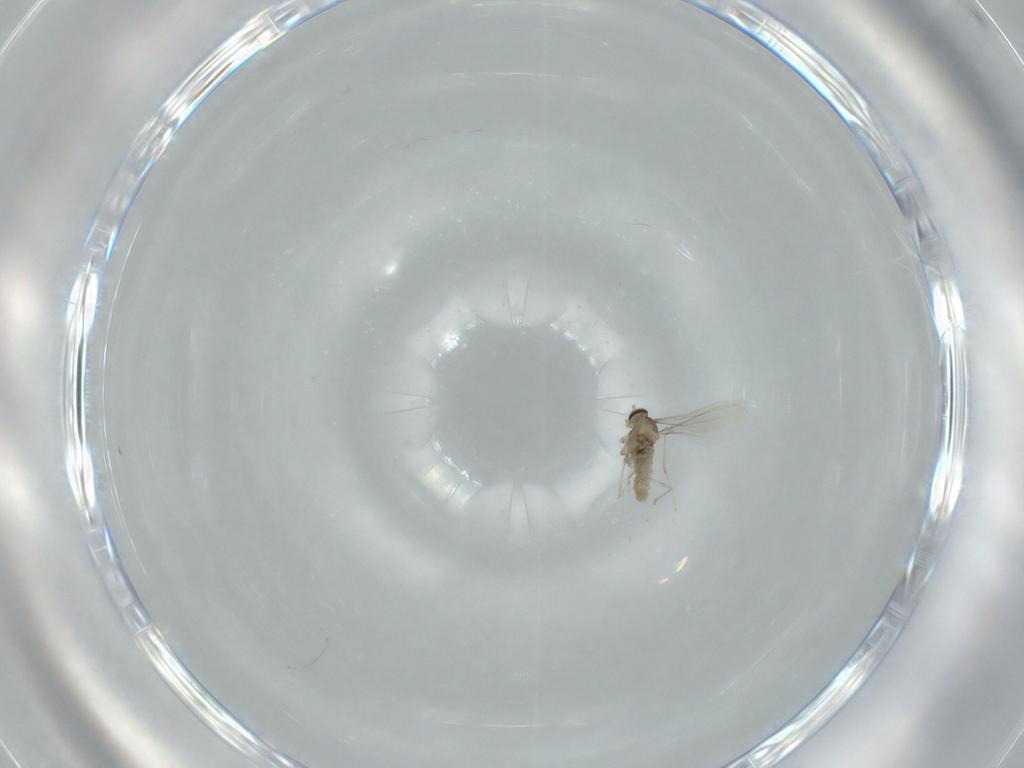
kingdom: Animalia
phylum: Arthropoda
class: Insecta
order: Diptera
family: Cecidomyiidae
